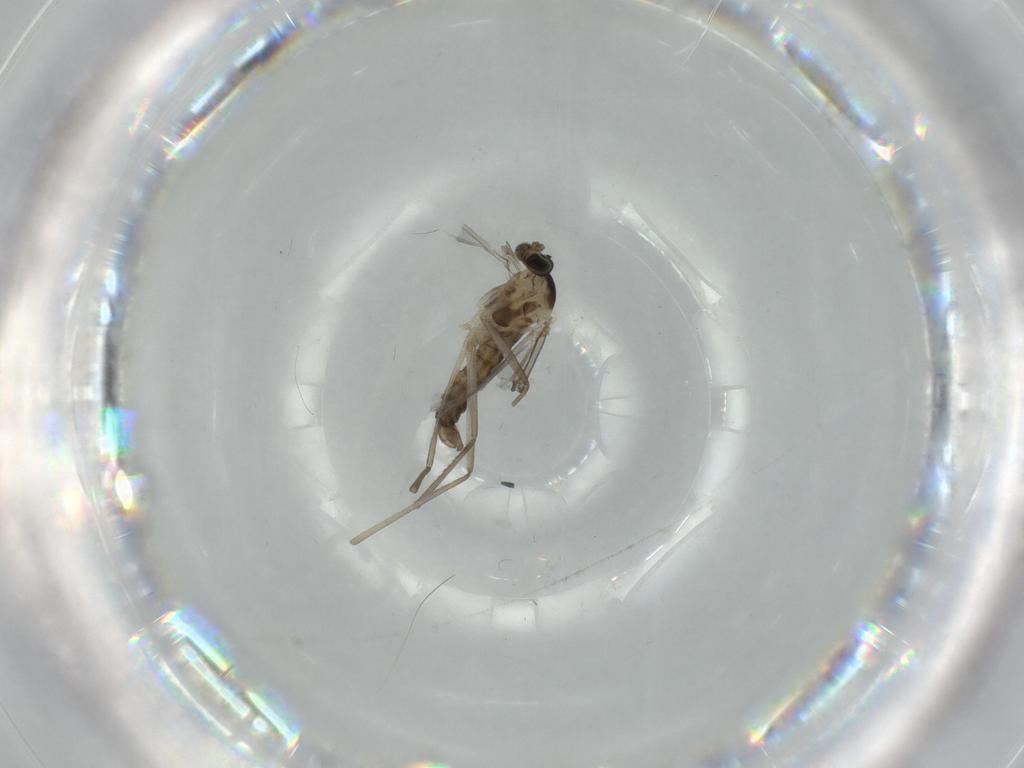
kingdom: Animalia
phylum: Arthropoda
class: Insecta
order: Diptera
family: Cecidomyiidae
